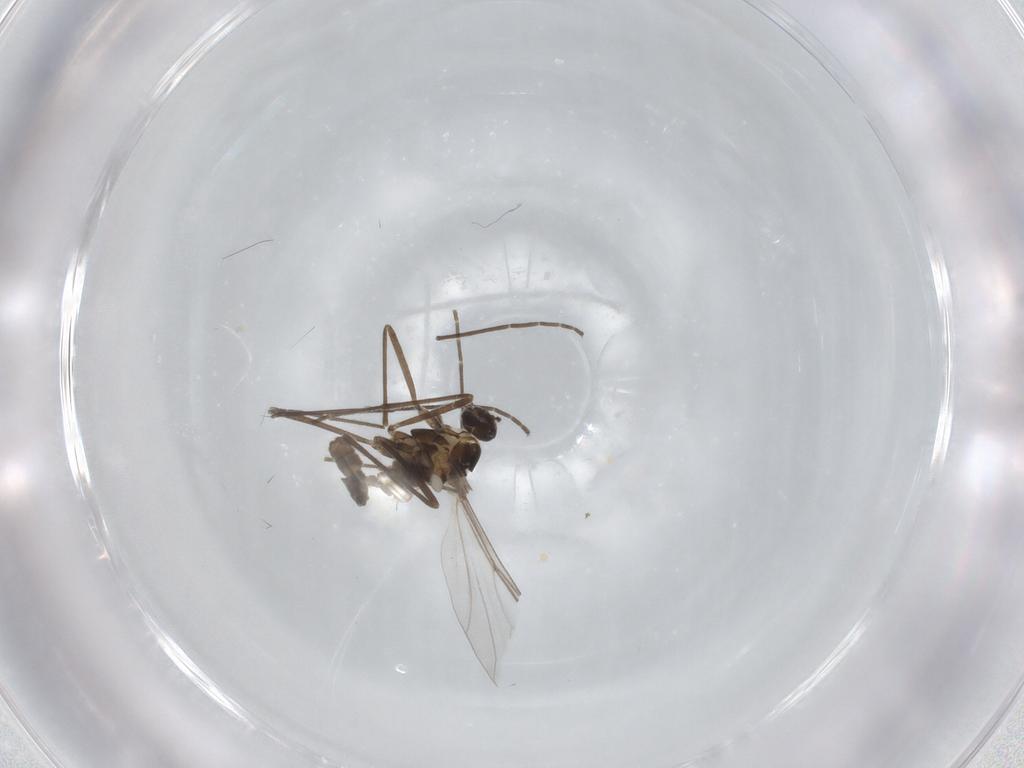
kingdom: Animalia
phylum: Arthropoda
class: Insecta
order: Diptera
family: Cecidomyiidae
